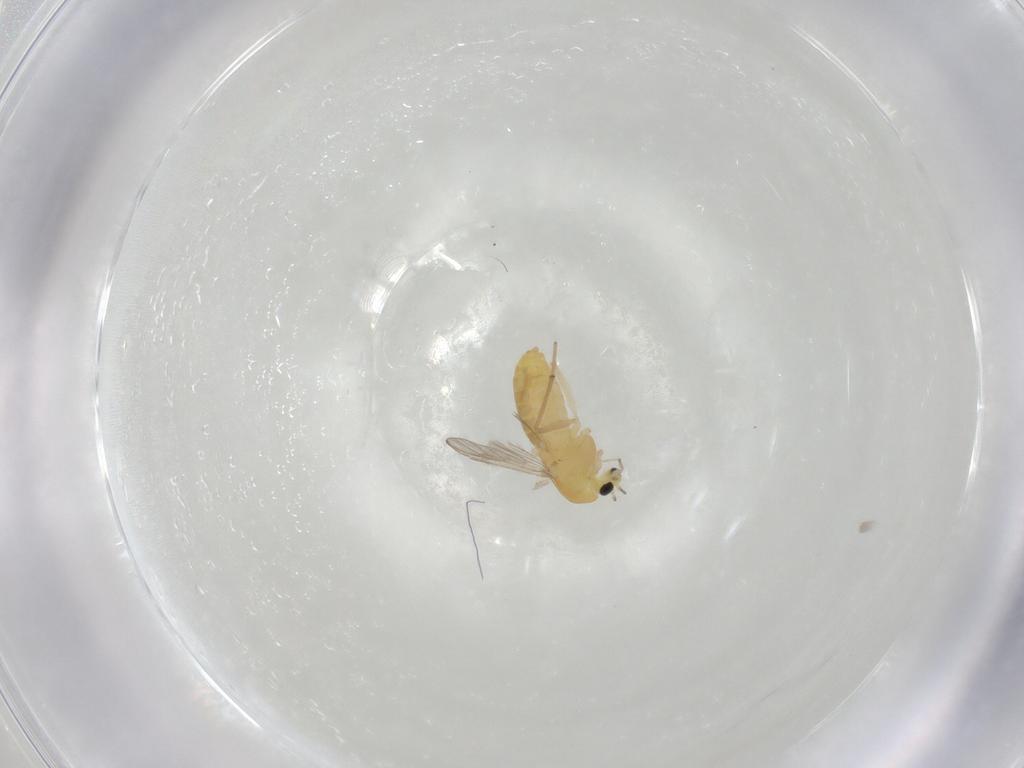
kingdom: Animalia
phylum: Arthropoda
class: Insecta
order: Diptera
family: Chironomidae
